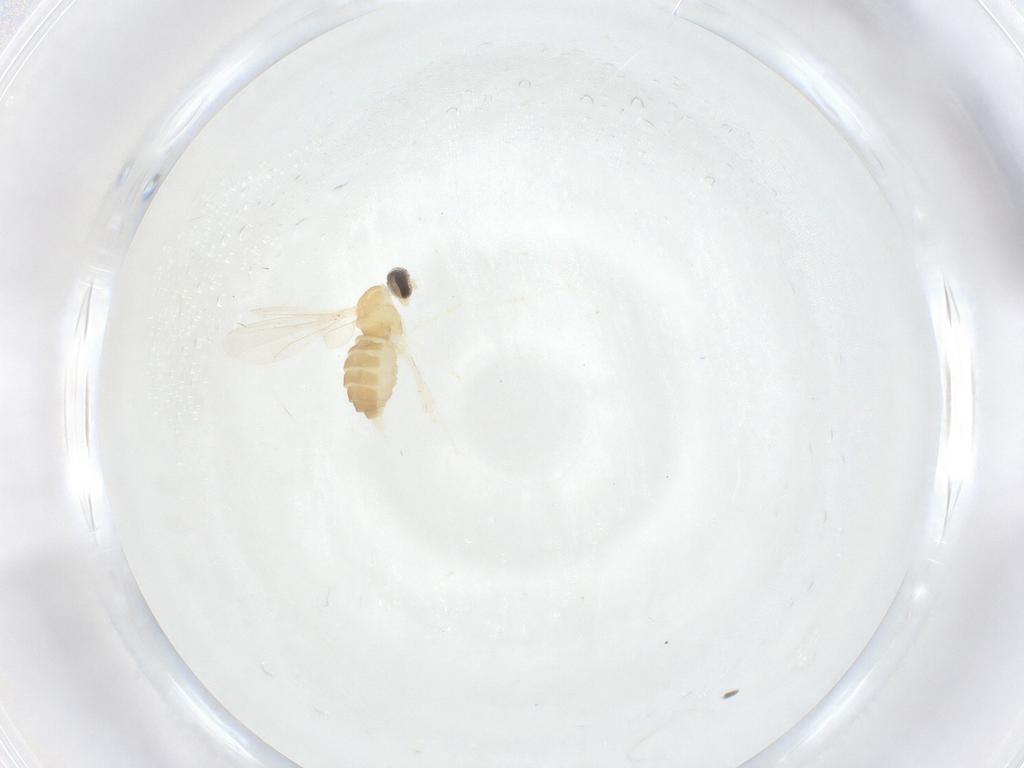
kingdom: Animalia
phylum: Arthropoda
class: Insecta
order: Diptera
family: Cecidomyiidae
